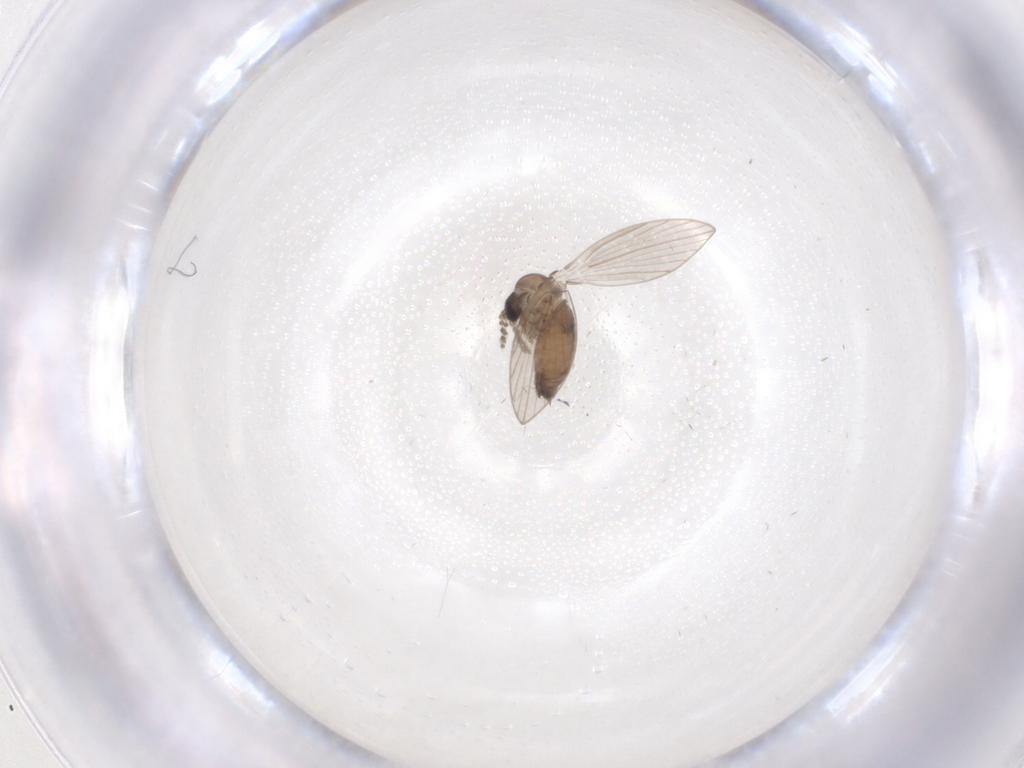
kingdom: Animalia
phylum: Arthropoda
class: Insecta
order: Diptera
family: Psychodidae
